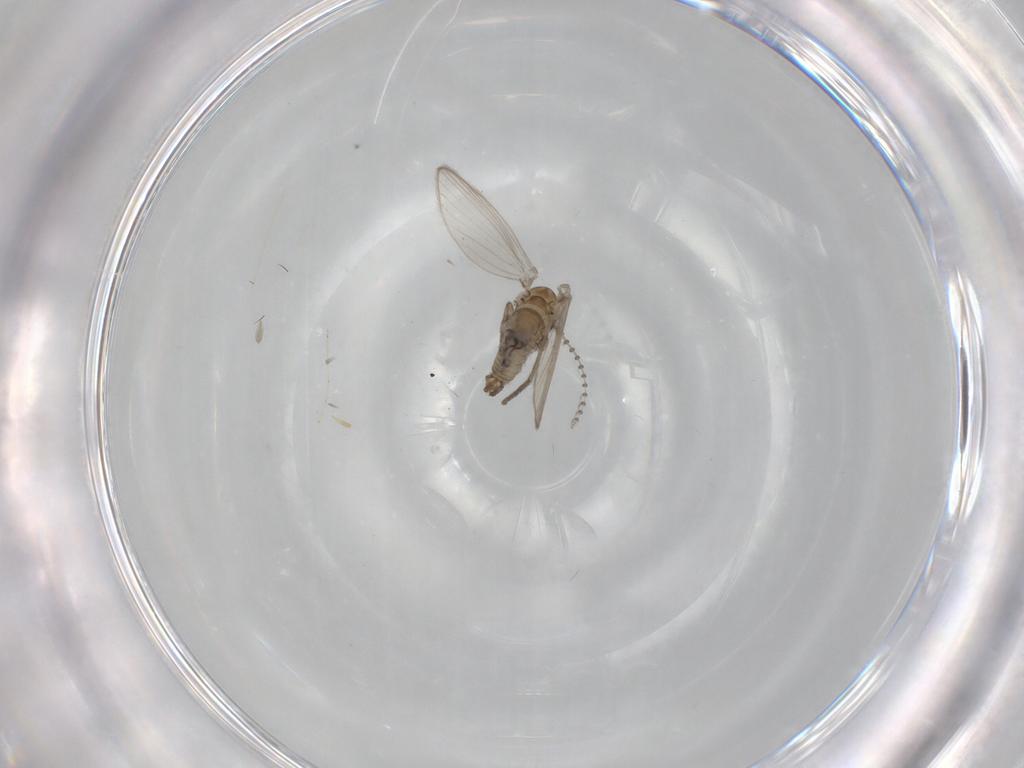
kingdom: Animalia
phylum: Arthropoda
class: Insecta
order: Diptera
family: Psychodidae
